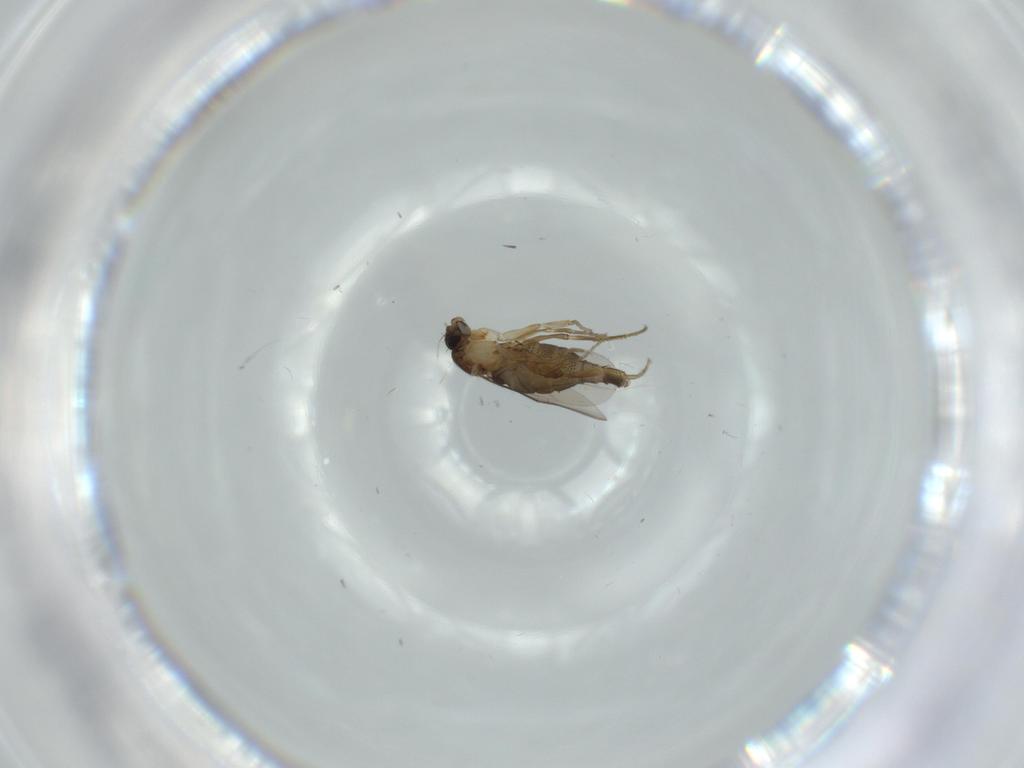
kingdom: Animalia
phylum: Arthropoda
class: Insecta
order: Diptera
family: Phoridae
